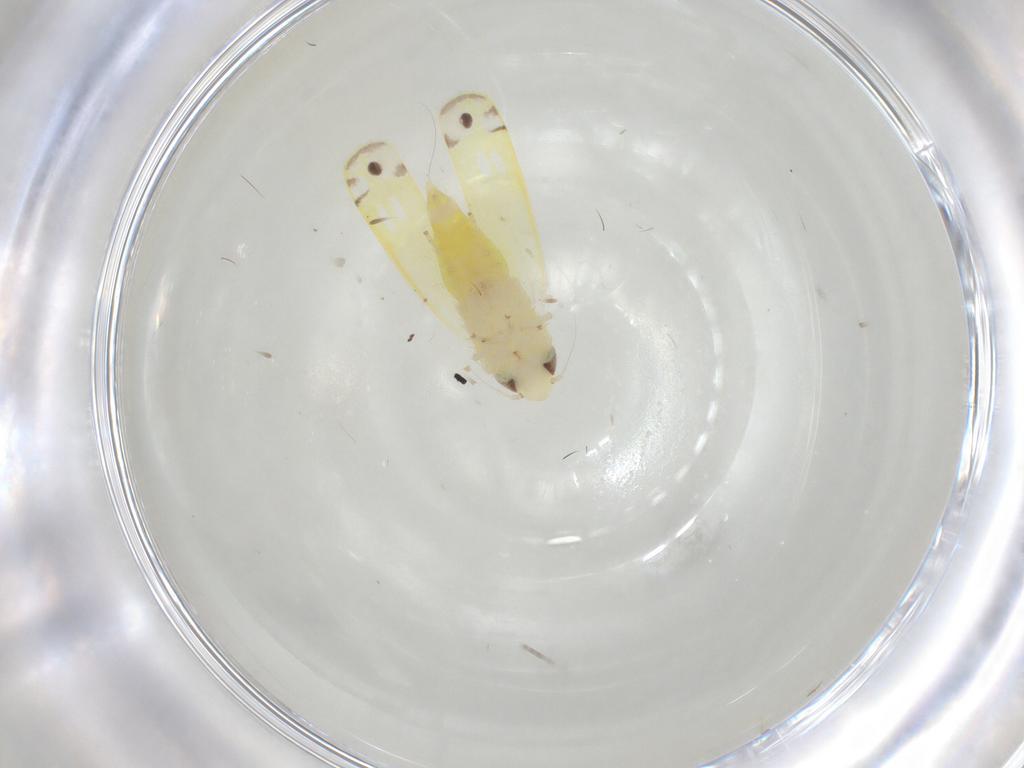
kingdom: Animalia
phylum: Arthropoda
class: Insecta
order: Hemiptera
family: Cicadellidae
